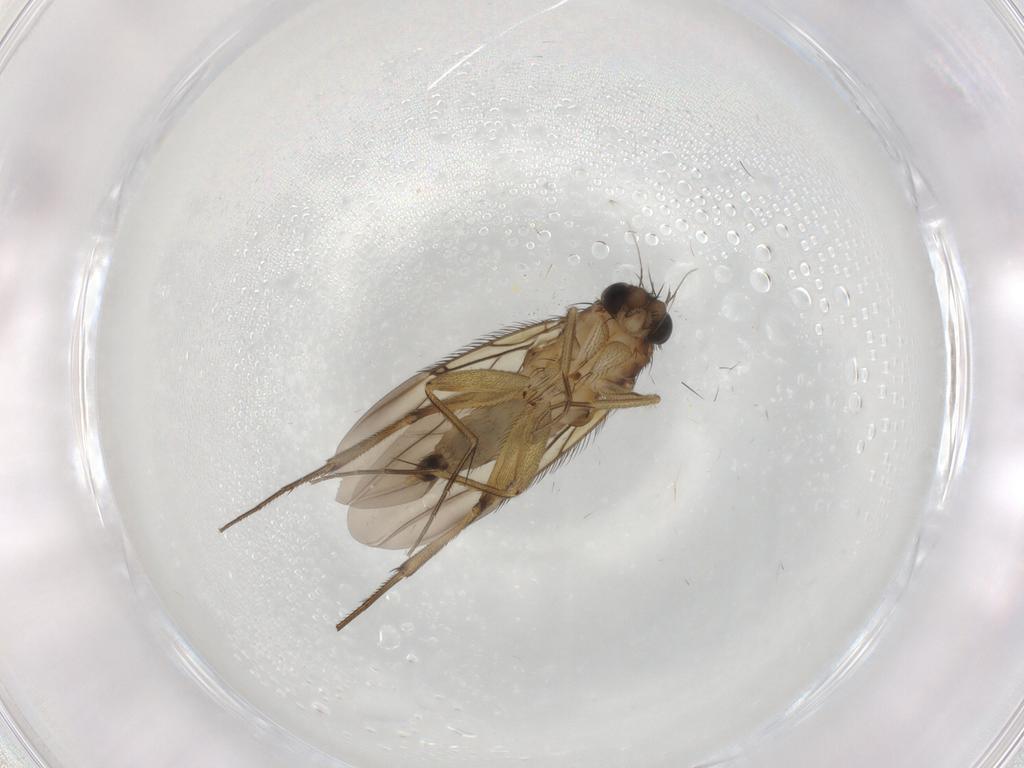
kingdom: Animalia
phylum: Arthropoda
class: Insecta
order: Diptera
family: Phoridae
